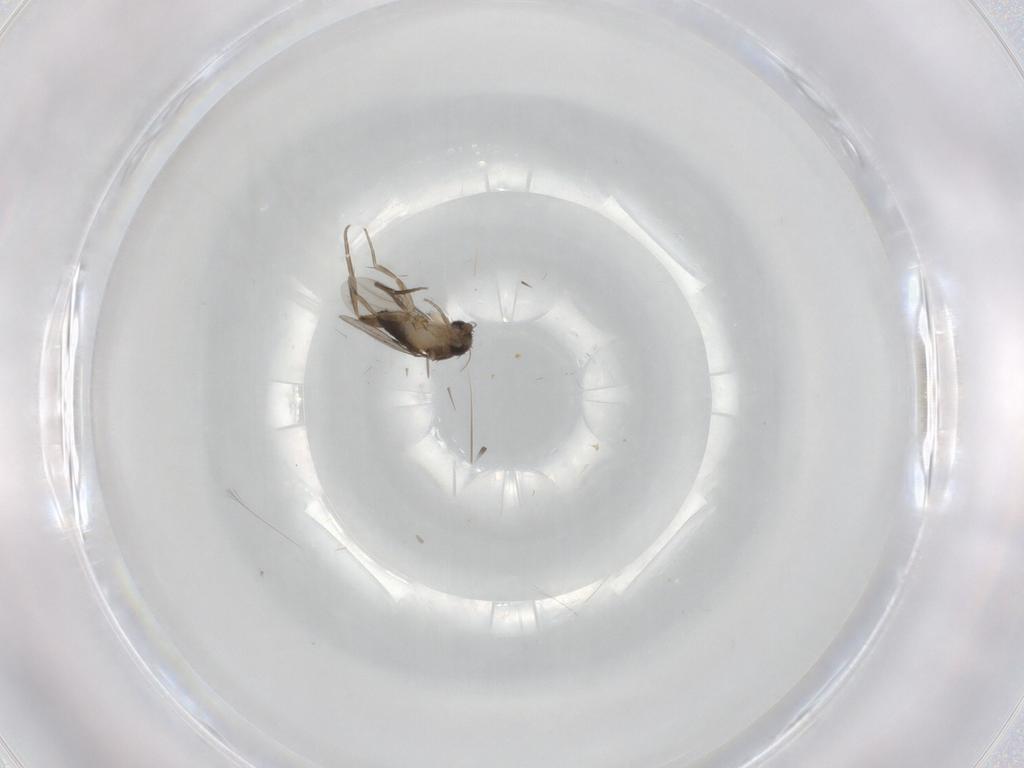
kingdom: Animalia
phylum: Arthropoda
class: Insecta
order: Diptera
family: Phoridae
